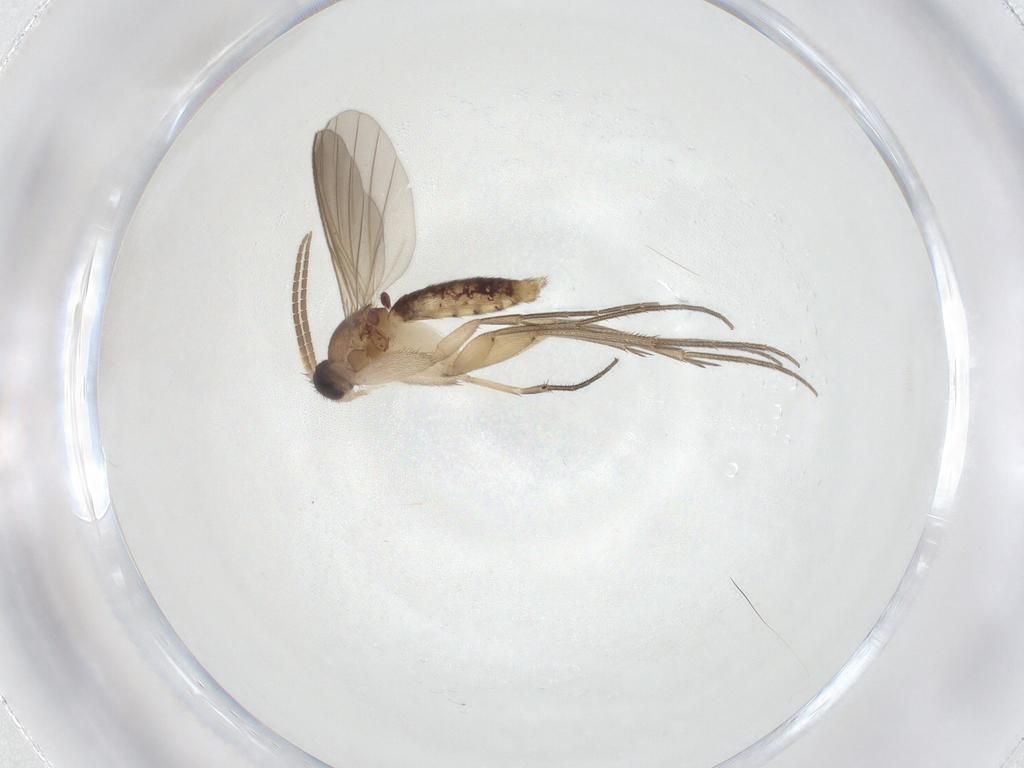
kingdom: Animalia
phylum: Arthropoda
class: Insecta
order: Diptera
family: Mycetophilidae
